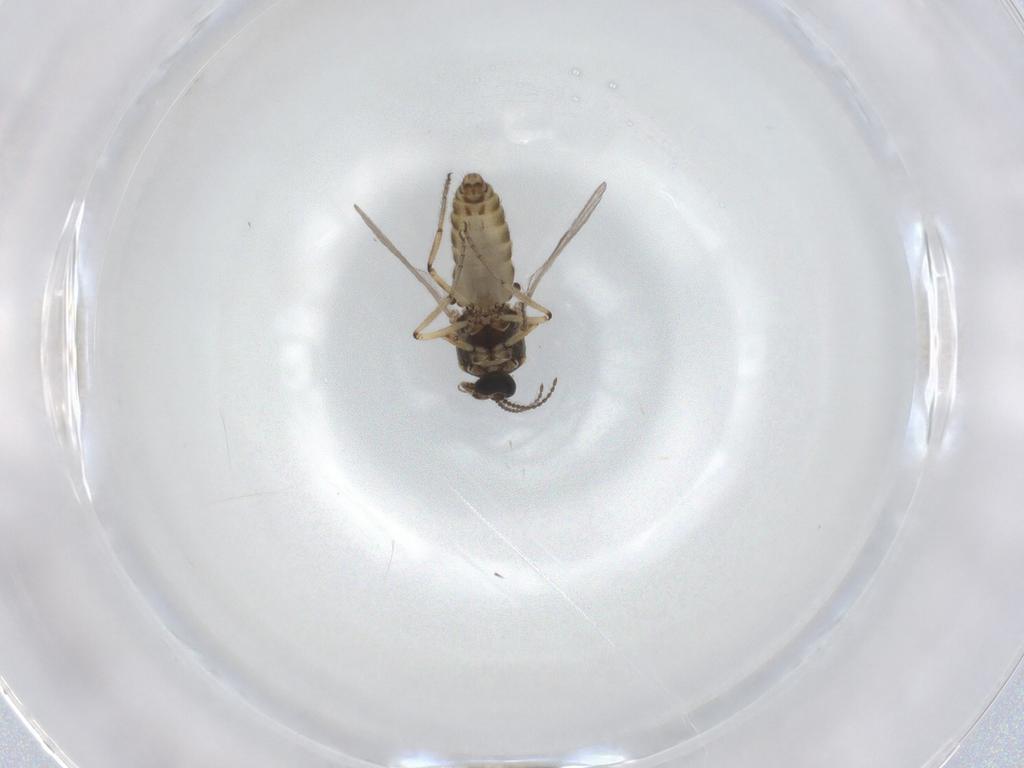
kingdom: Animalia
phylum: Arthropoda
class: Insecta
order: Diptera
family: Ceratopogonidae
